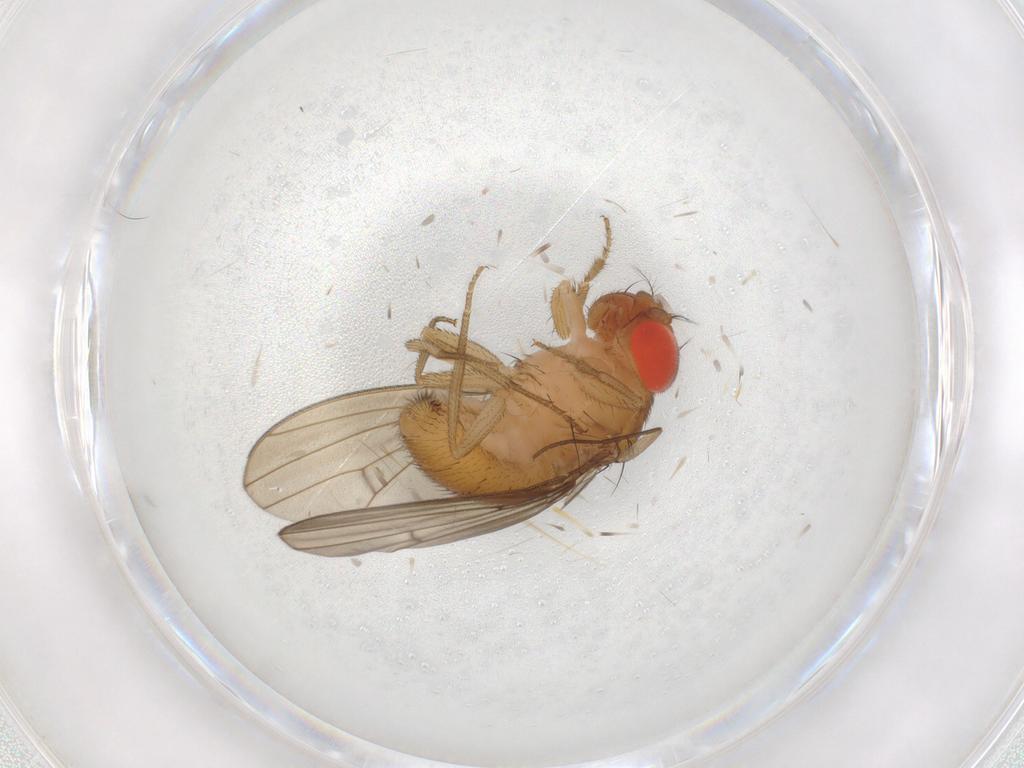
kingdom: Animalia
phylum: Arthropoda
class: Insecta
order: Diptera
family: Drosophilidae
